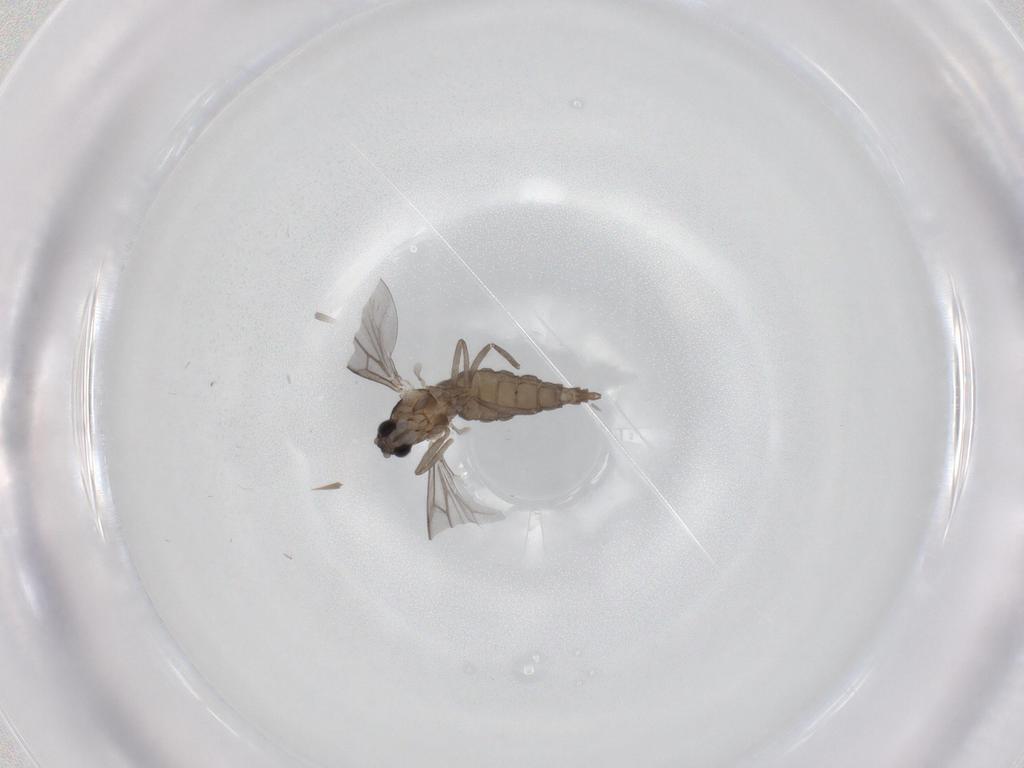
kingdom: Animalia
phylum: Arthropoda
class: Insecta
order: Diptera
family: Cecidomyiidae
